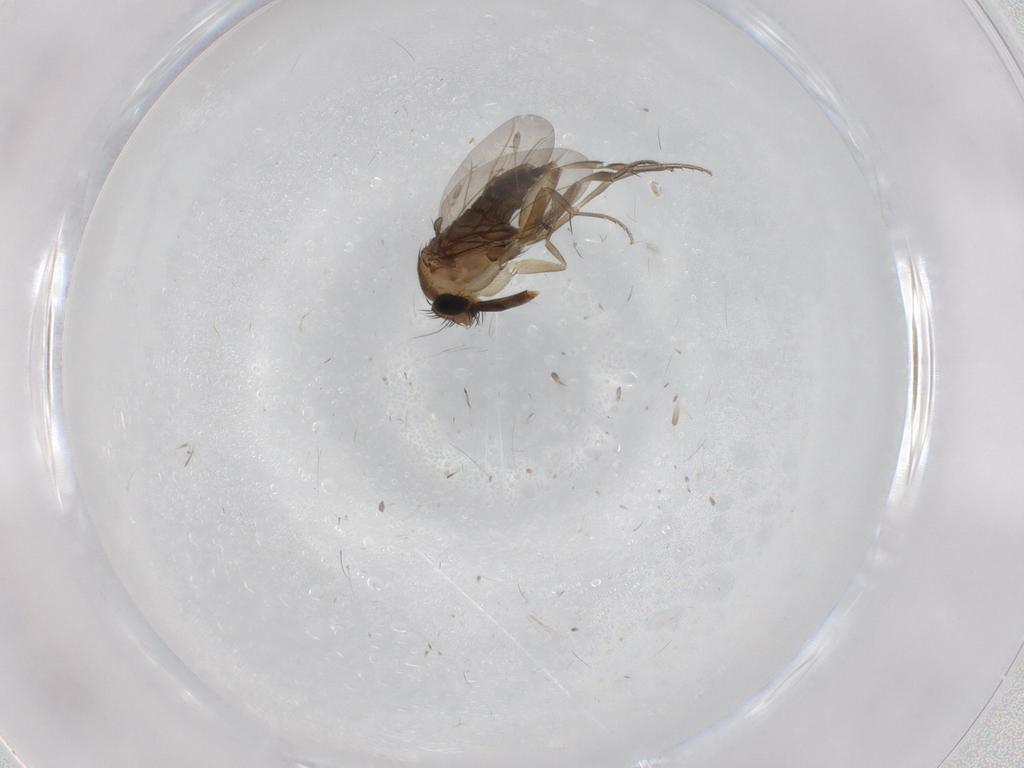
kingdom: Animalia
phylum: Arthropoda
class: Insecta
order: Diptera
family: Phoridae
